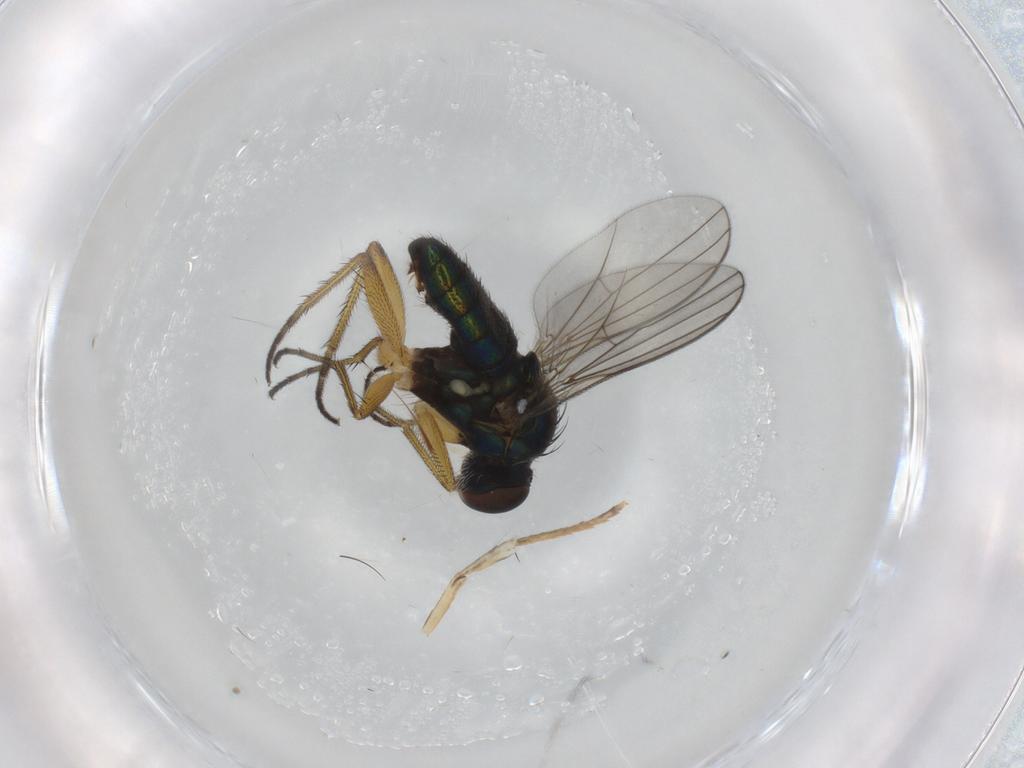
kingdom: Animalia
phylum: Arthropoda
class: Insecta
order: Diptera
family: Dolichopodidae
